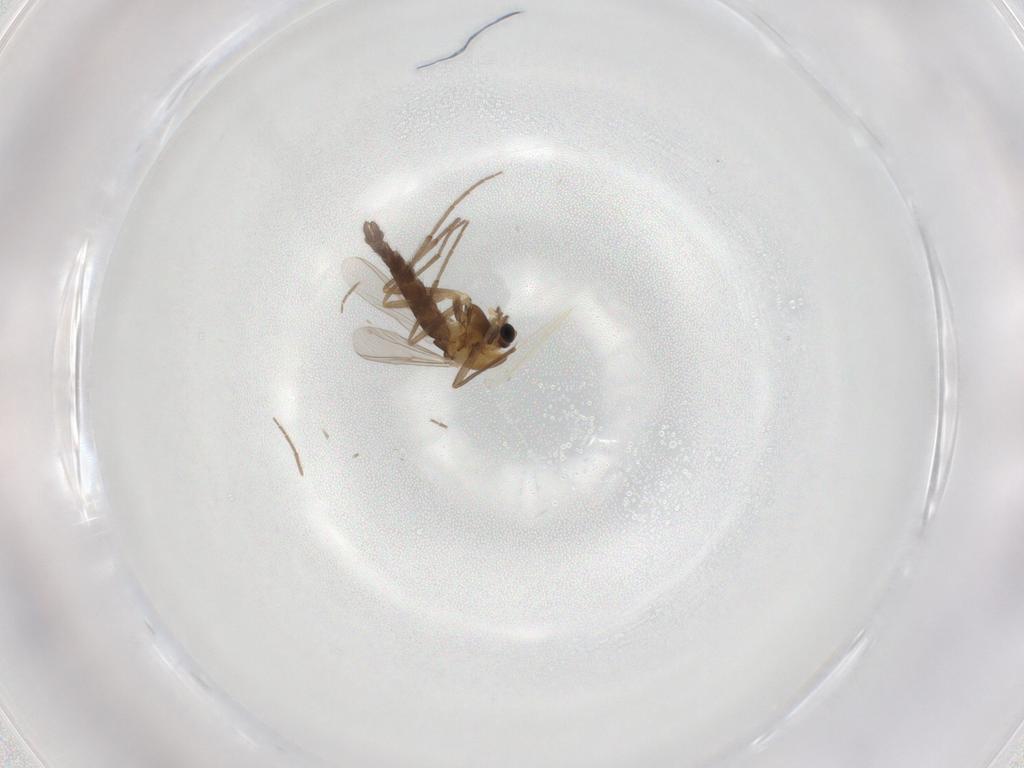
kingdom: Animalia
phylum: Arthropoda
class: Insecta
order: Diptera
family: Chironomidae
